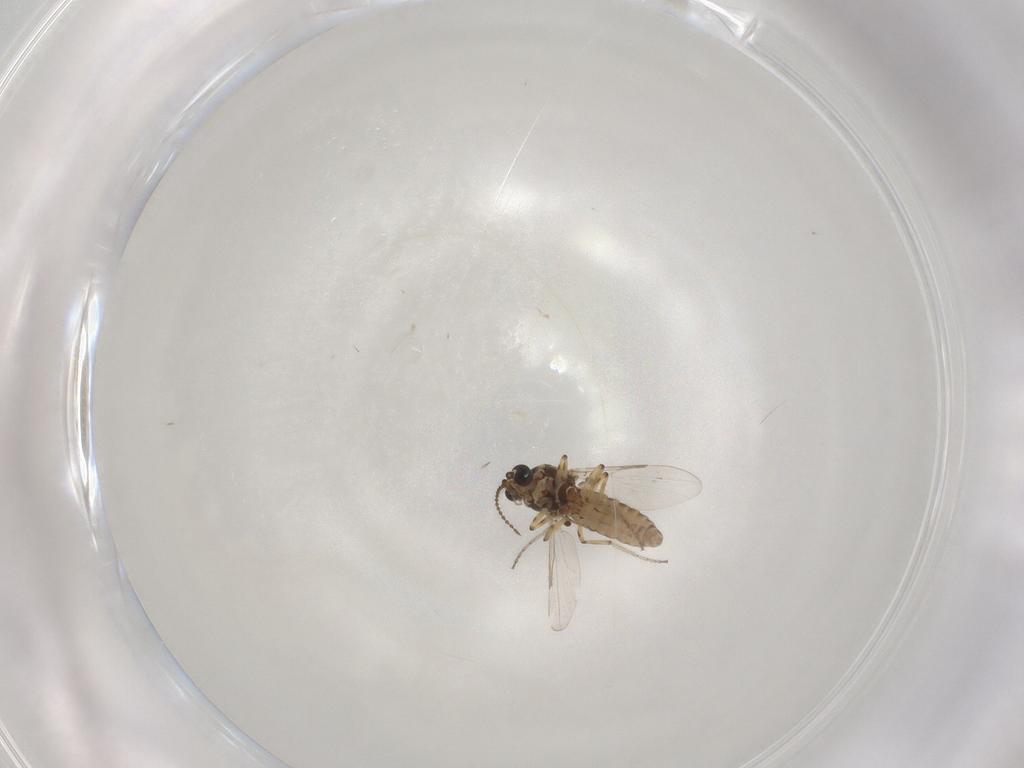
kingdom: Animalia
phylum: Arthropoda
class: Insecta
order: Diptera
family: Ceratopogonidae
